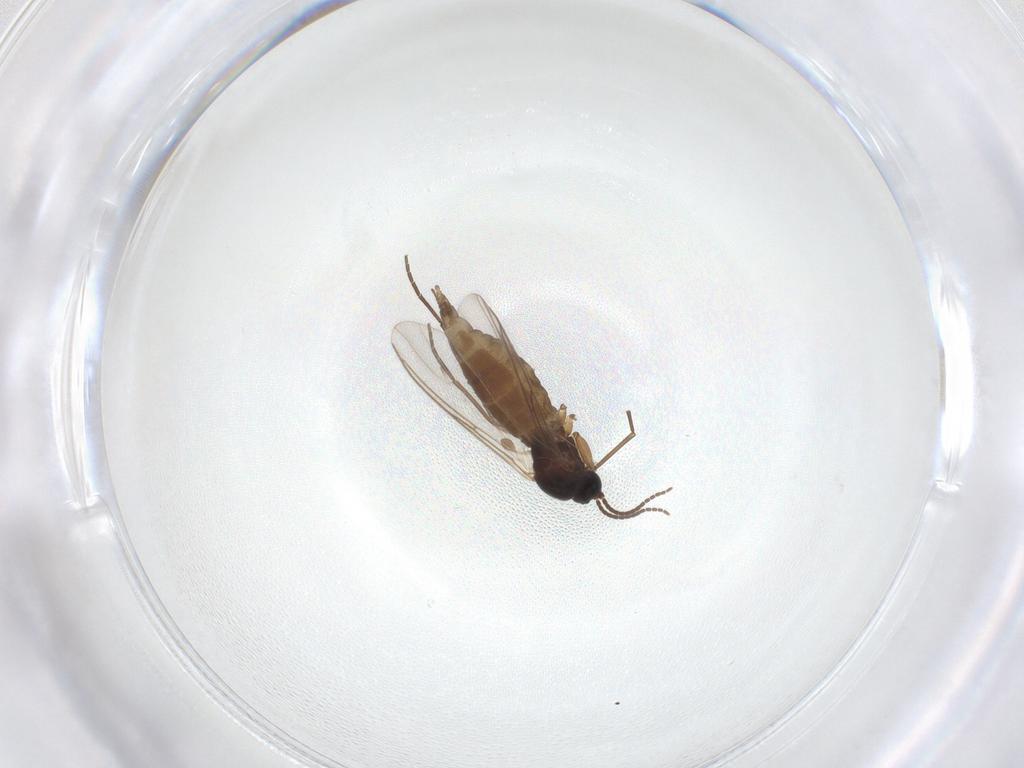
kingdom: Animalia
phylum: Arthropoda
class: Insecta
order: Diptera
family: Sciaridae
